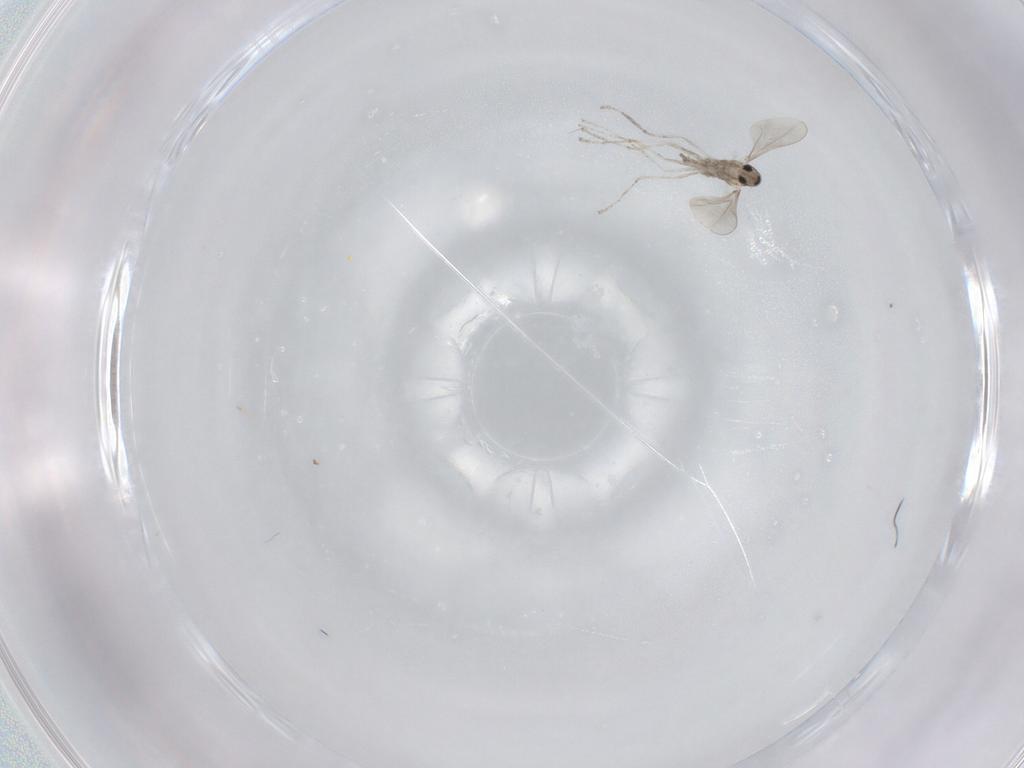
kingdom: Animalia
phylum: Arthropoda
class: Insecta
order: Diptera
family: Cecidomyiidae
